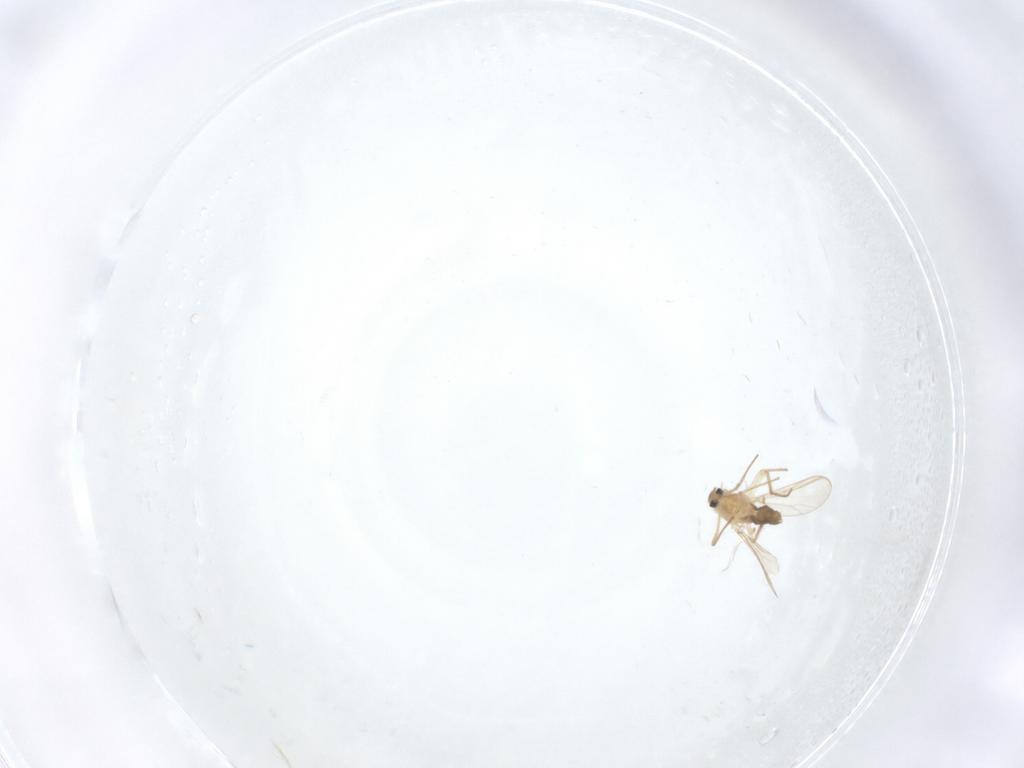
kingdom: Animalia
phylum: Arthropoda
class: Insecta
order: Diptera
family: Chironomidae
